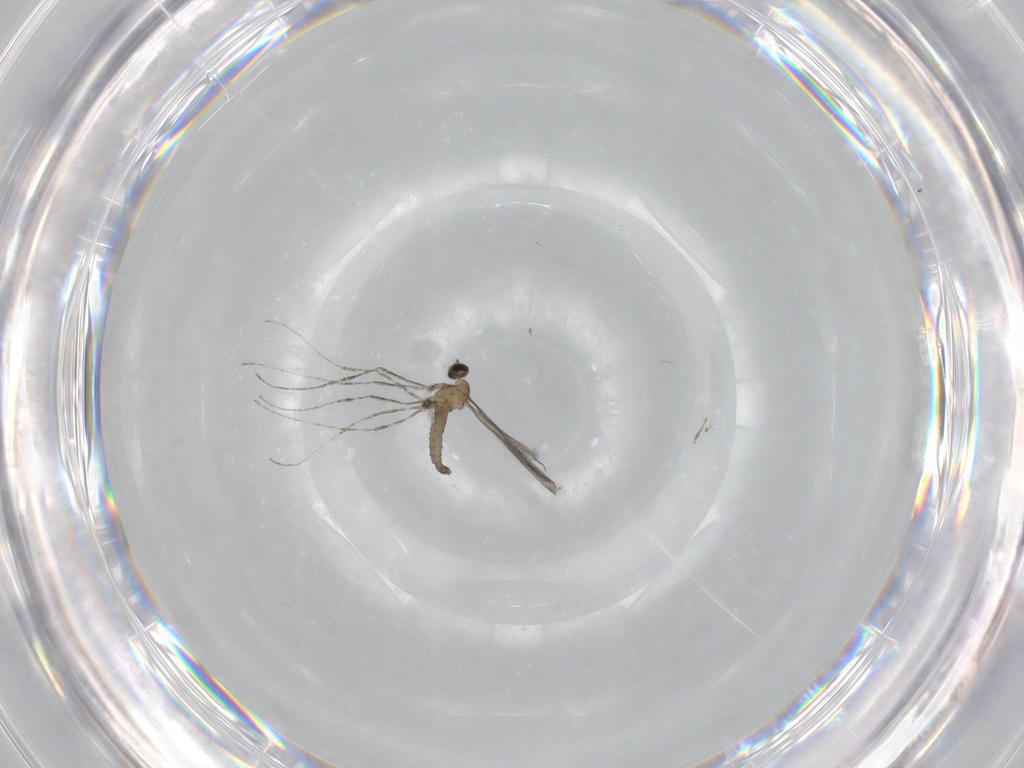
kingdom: Animalia
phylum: Arthropoda
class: Insecta
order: Diptera
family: Cecidomyiidae
